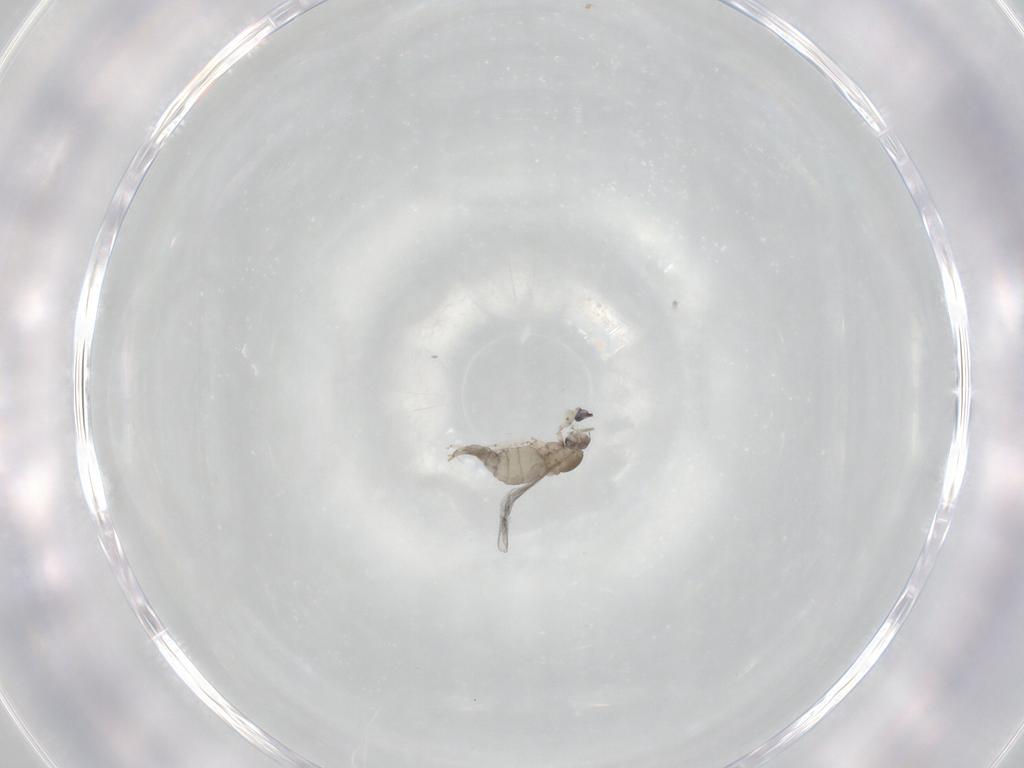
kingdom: Animalia
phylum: Arthropoda
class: Insecta
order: Diptera
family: Cecidomyiidae
